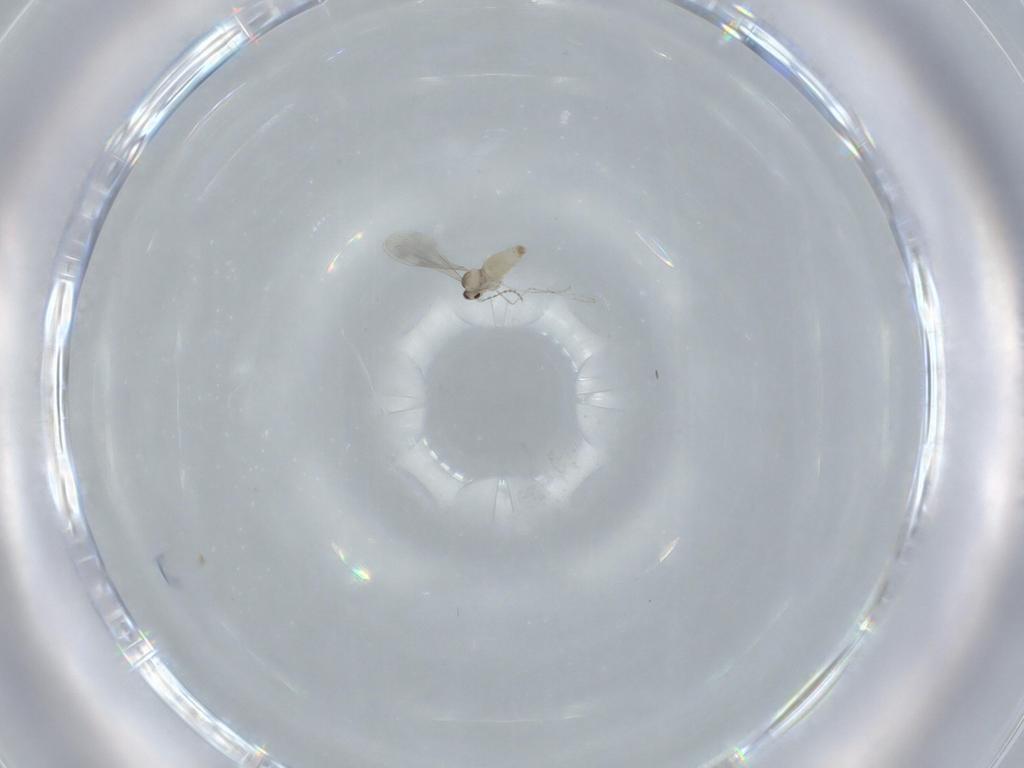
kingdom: Animalia
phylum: Arthropoda
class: Insecta
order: Diptera
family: Cecidomyiidae
